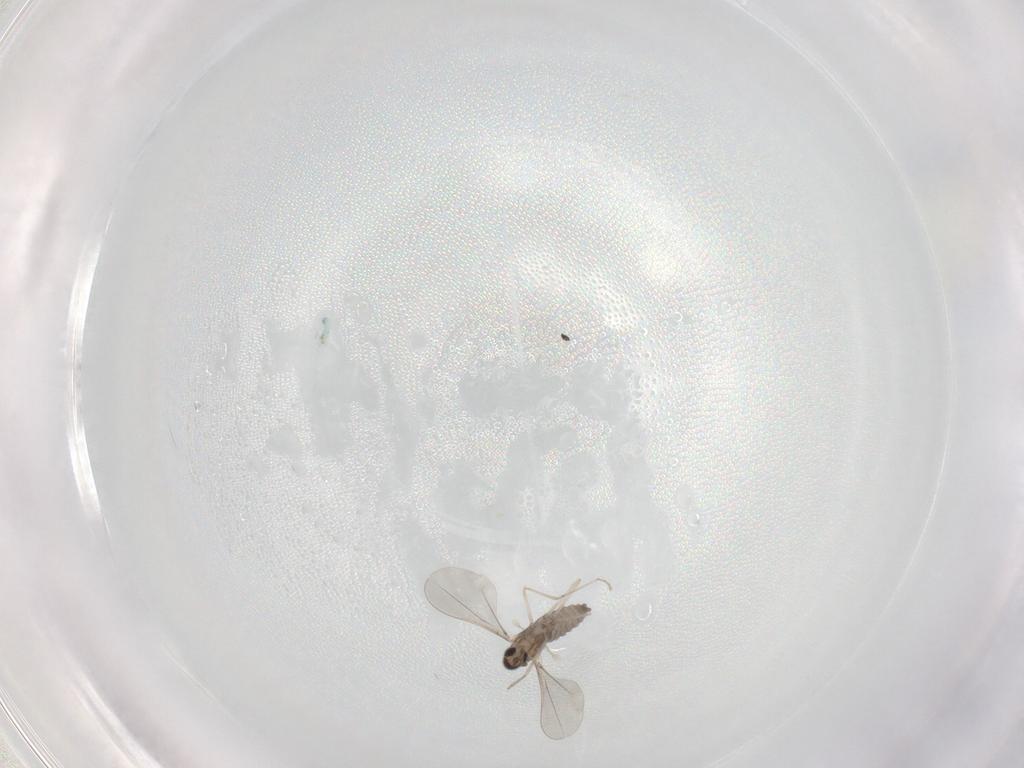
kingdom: Animalia
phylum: Arthropoda
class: Insecta
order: Diptera
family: Cecidomyiidae
